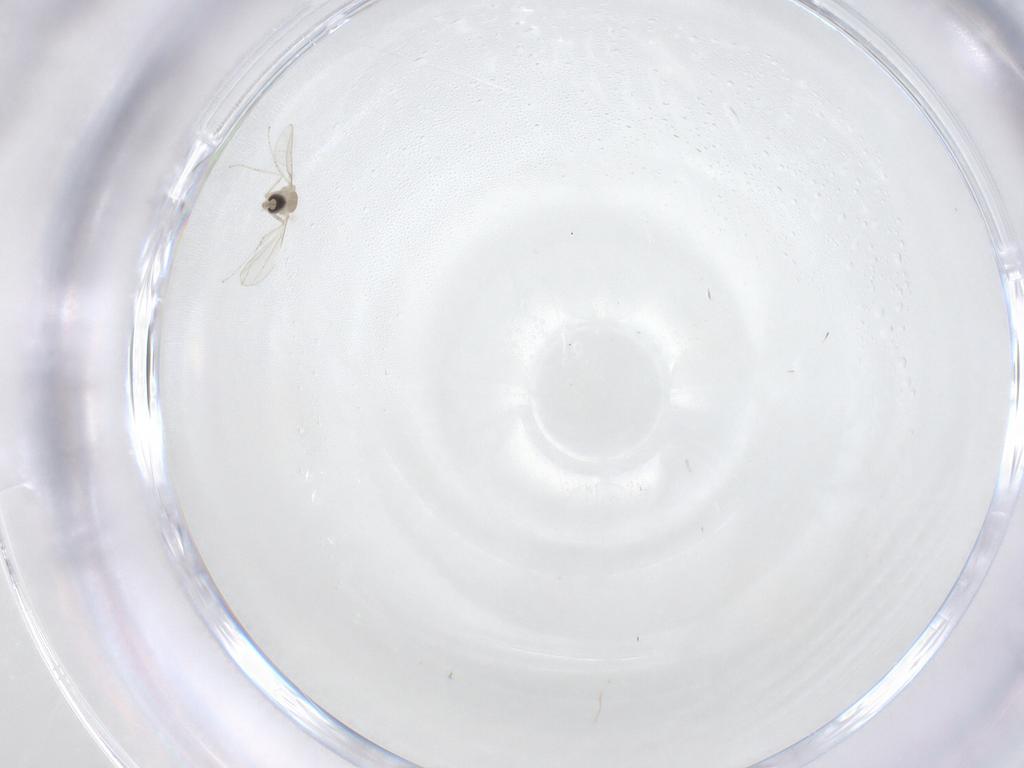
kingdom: Animalia
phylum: Arthropoda
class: Insecta
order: Diptera
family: Cecidomyiidae
